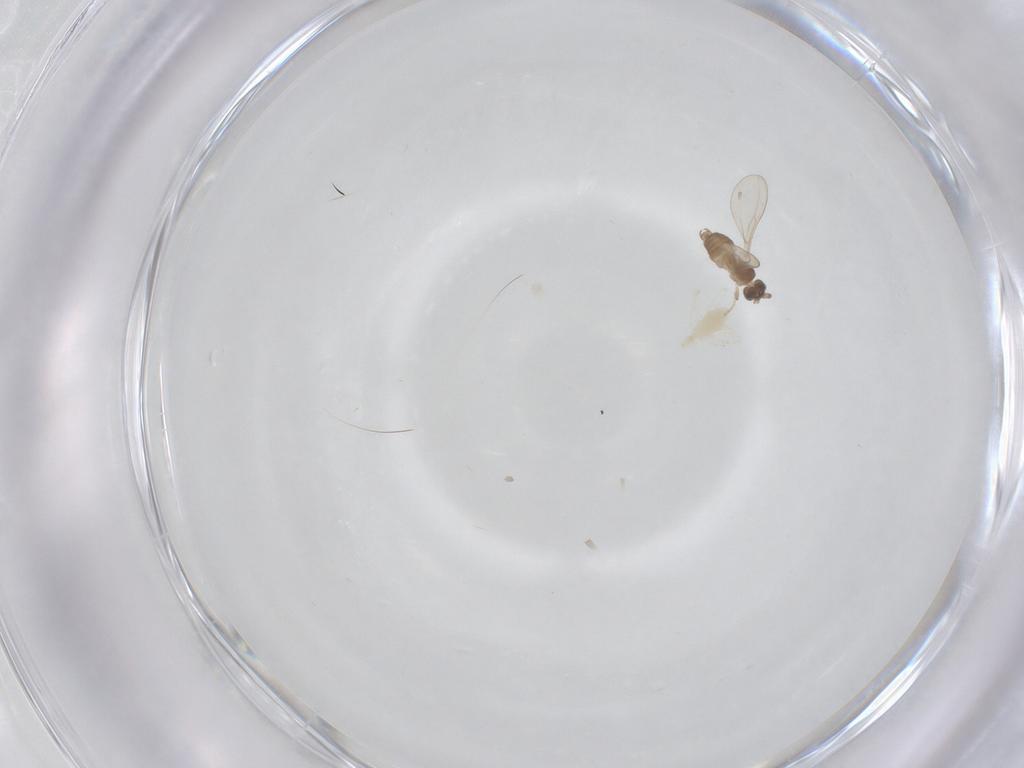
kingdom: Animalia
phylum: Arthropoda
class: Insecta
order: Diptera
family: Cecidomyiidae
